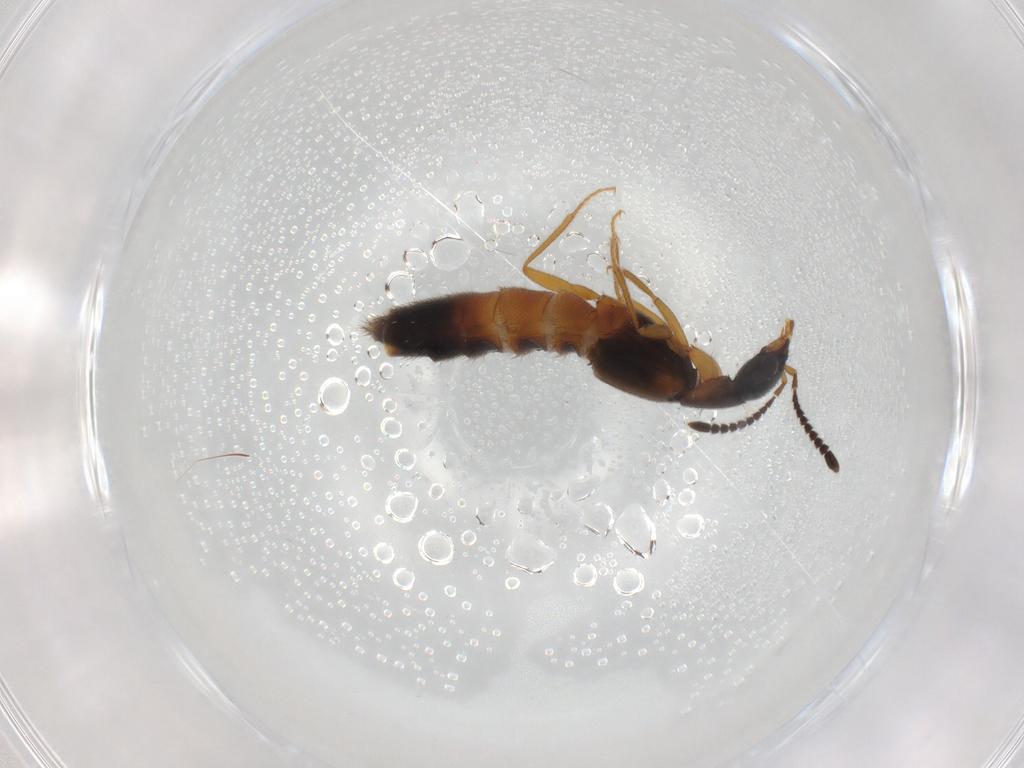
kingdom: Animalia
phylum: Arthropoda
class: Insecta
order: Coleoptera
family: Staphylinidae
